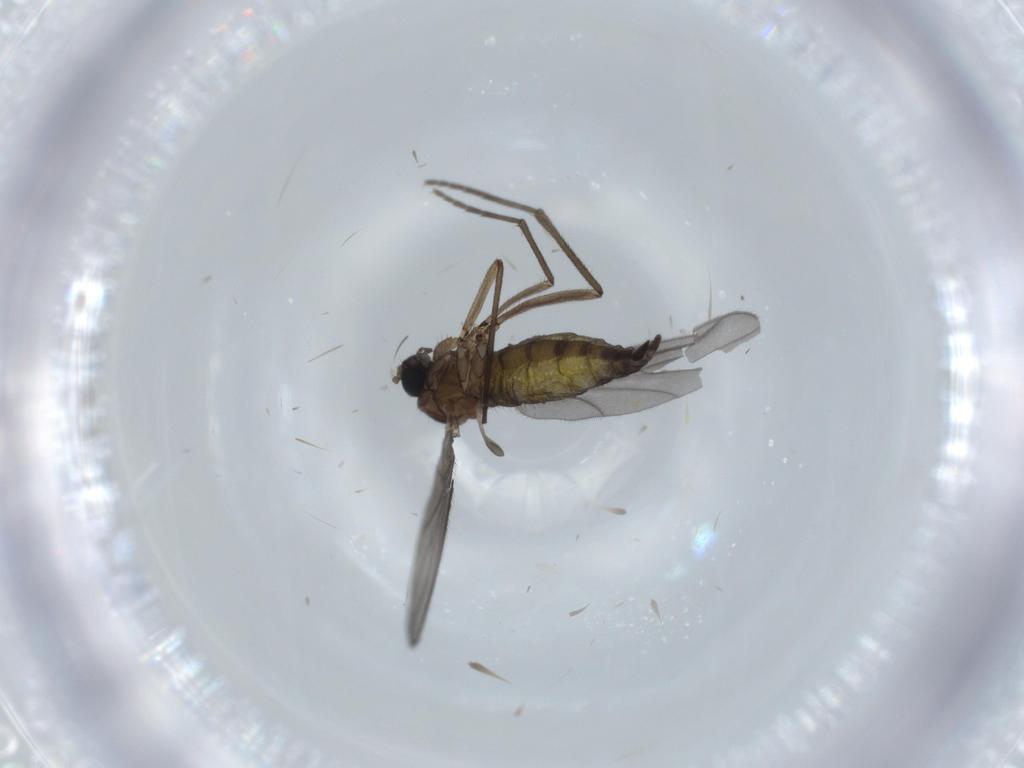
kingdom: Animalia
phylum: Arthropoda
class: Insecta
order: Diptera
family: Sciaridae
